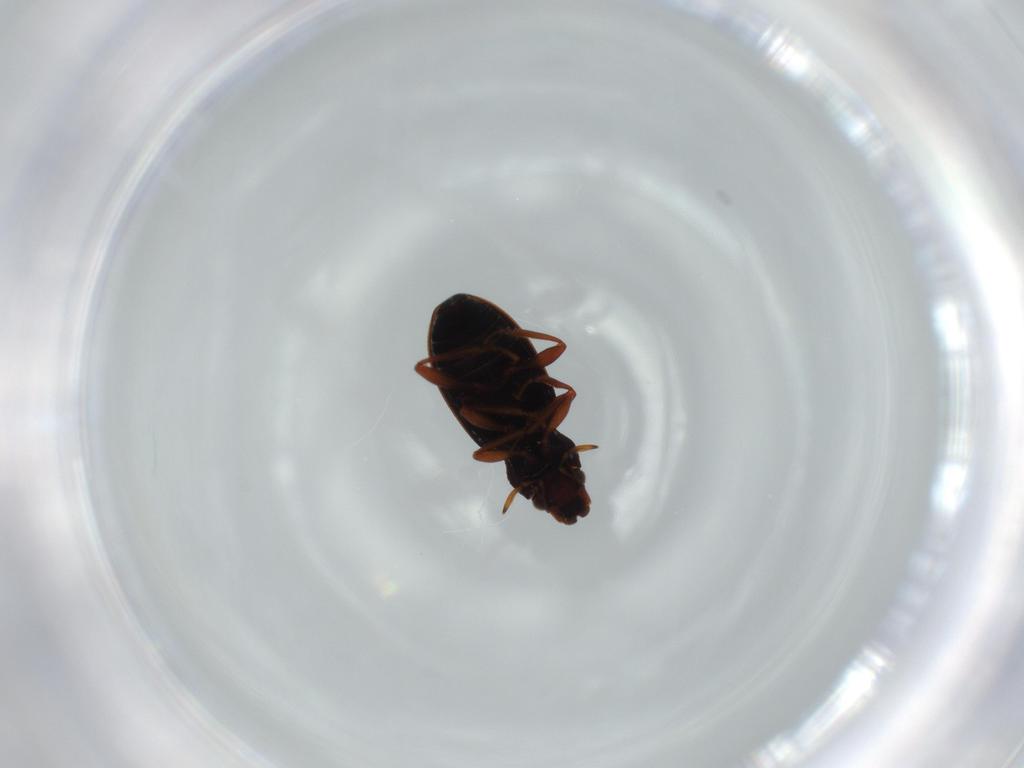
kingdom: Animalia
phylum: Arthropoda
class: Insecta
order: Coleoptera
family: Hydraenidae
